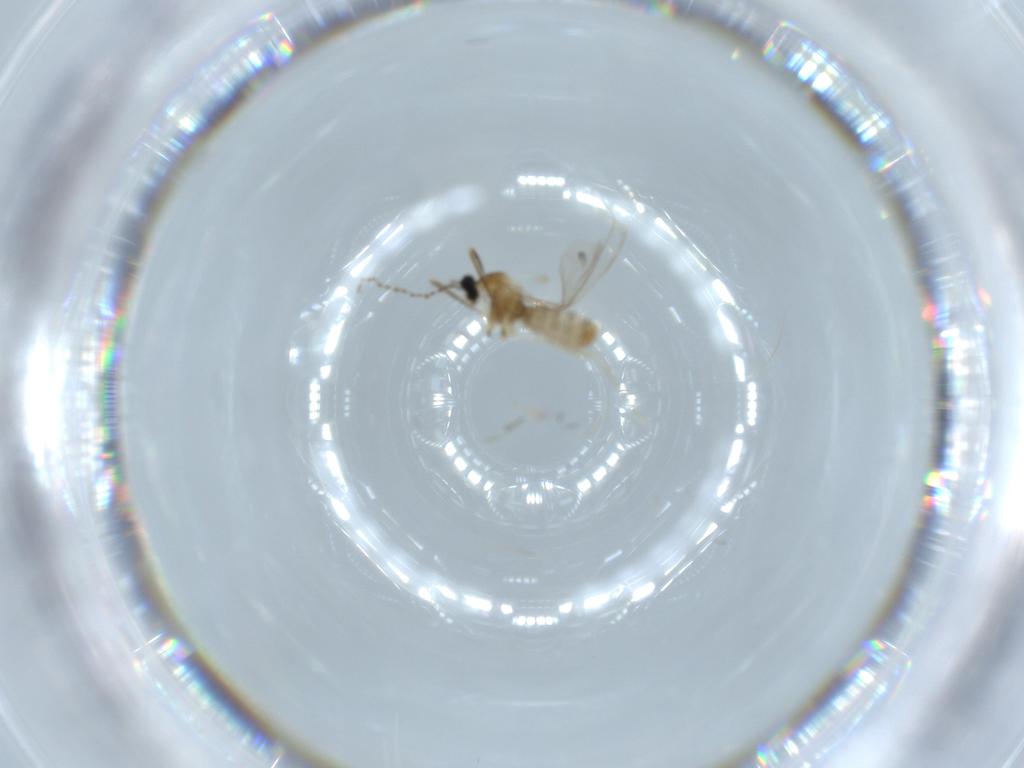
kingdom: Animalia
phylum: Arthropoda
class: Insecta
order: Diptera
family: Cecidomyiidae
